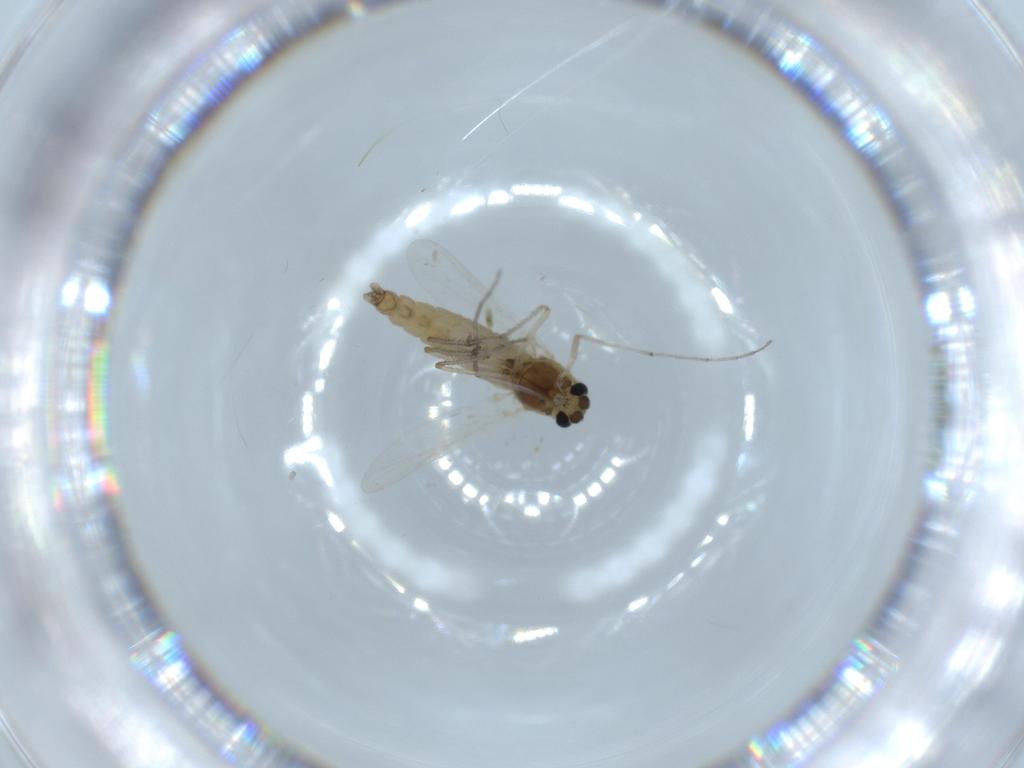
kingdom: Animalia
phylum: Arthropoda
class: Insecta
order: Diptera
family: Chironomidae
